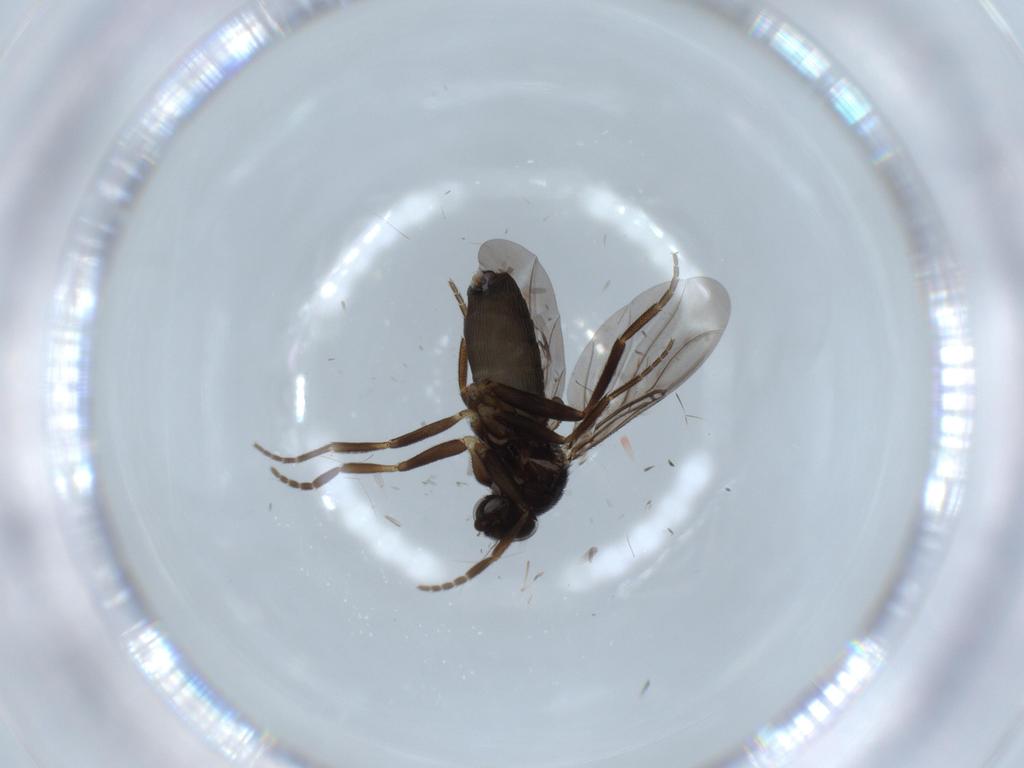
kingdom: Animalia
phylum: Arthropoda
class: Insecta
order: Diptera
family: Phoridae
